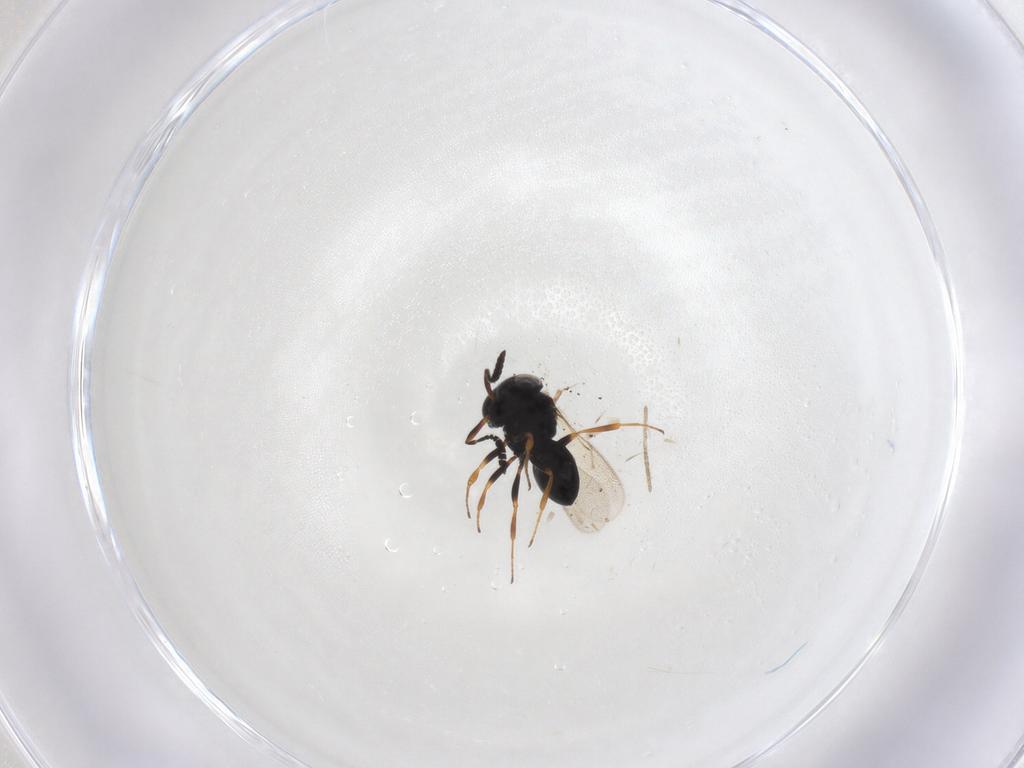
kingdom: Animalia
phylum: Arthropoda
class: Insecta
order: Hymenoptera
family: Scelionidae
